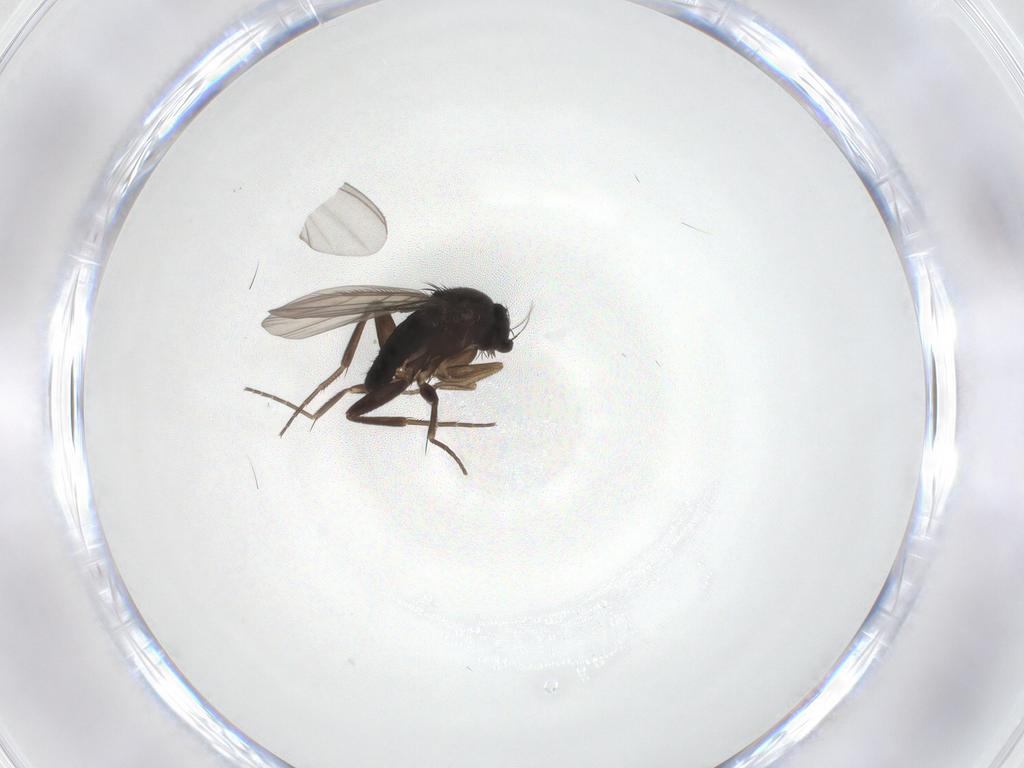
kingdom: Animalia
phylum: Arthropoda
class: Insecta
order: Diptera
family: Phoridae
